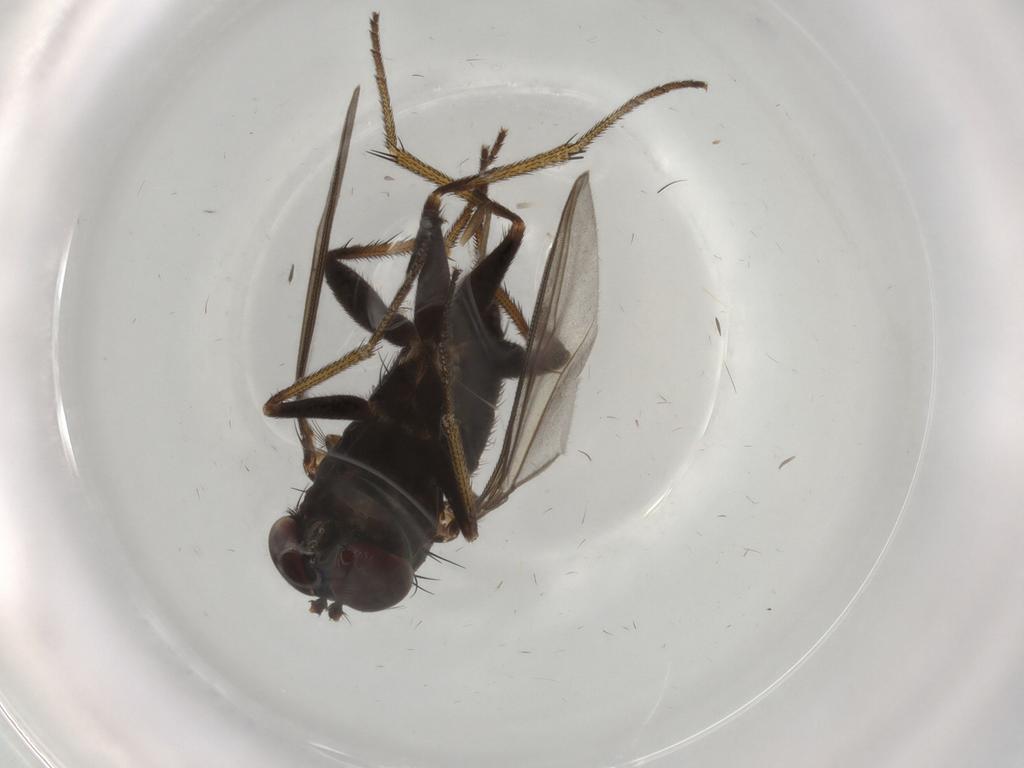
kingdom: Animalia
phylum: Arthropoda
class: Insecta
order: Diptera
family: Dolichopodidae
